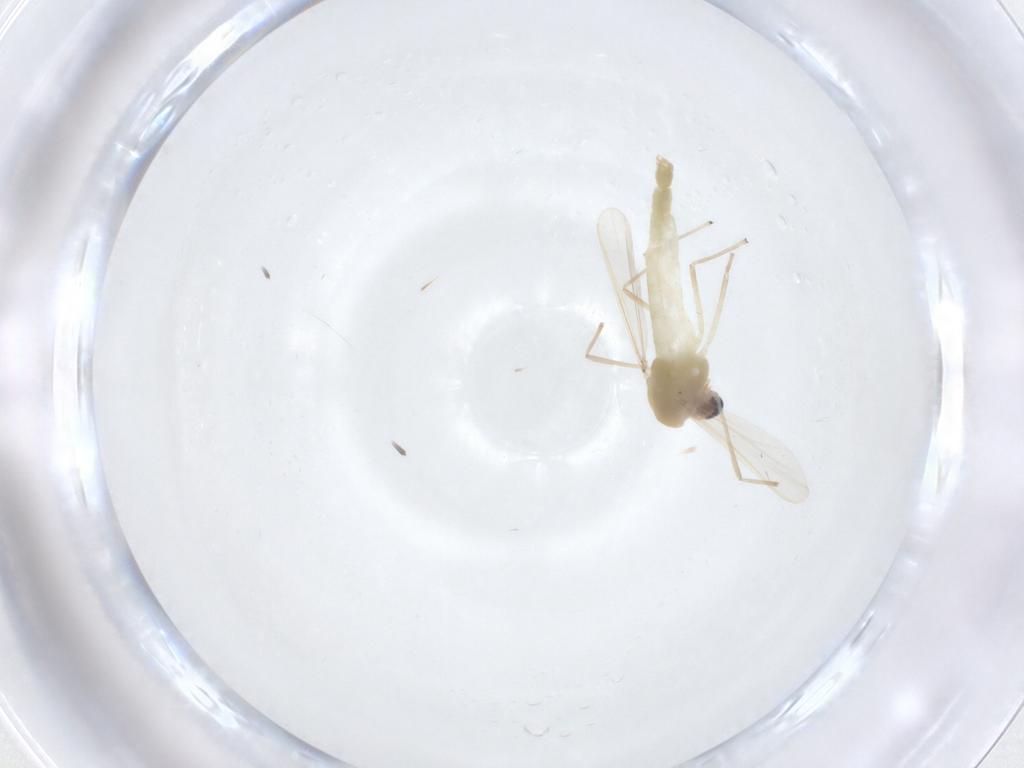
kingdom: Animalia
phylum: Arthropoda
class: Insecta
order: Diptera
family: Chironomidae
